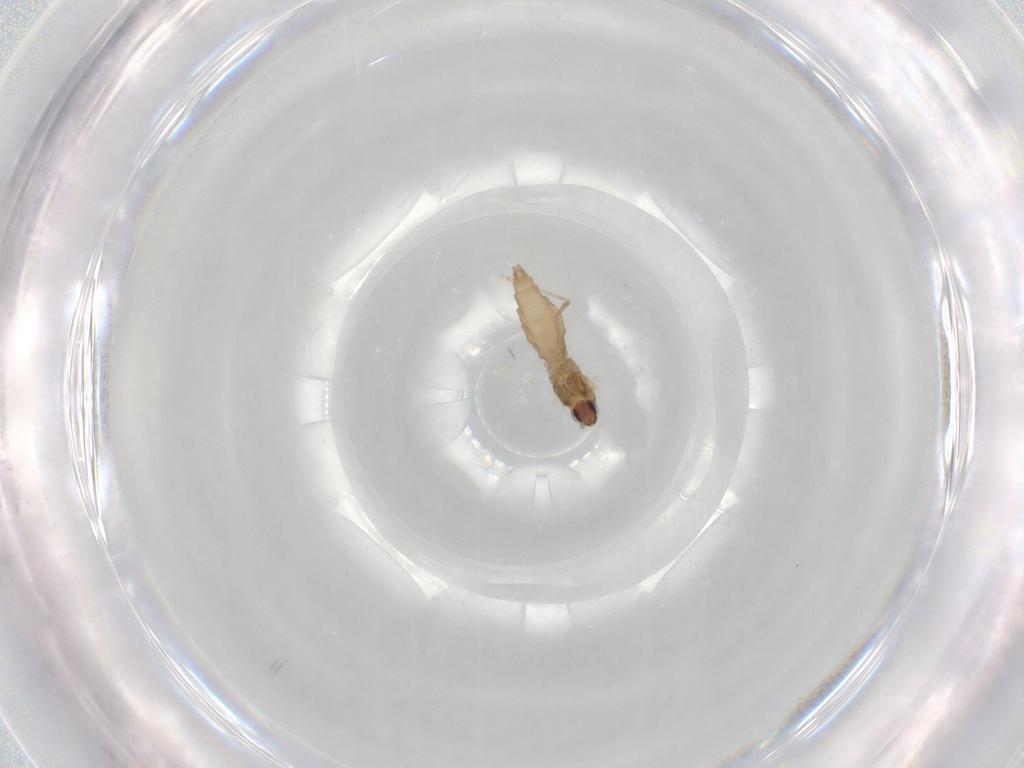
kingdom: Animalia
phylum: Arthropoda
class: Insecta
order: Diptera
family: Cecidomyiidae
